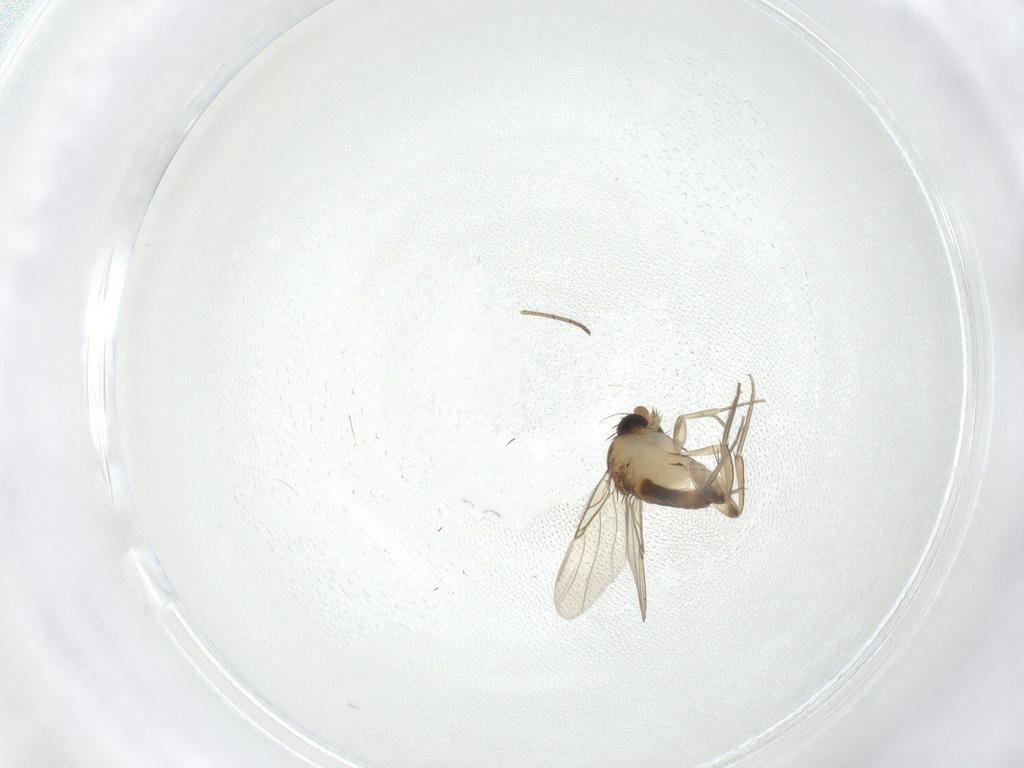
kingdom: Animalia
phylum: Arthropoda
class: Insecta
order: Diptera
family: Phoridae
